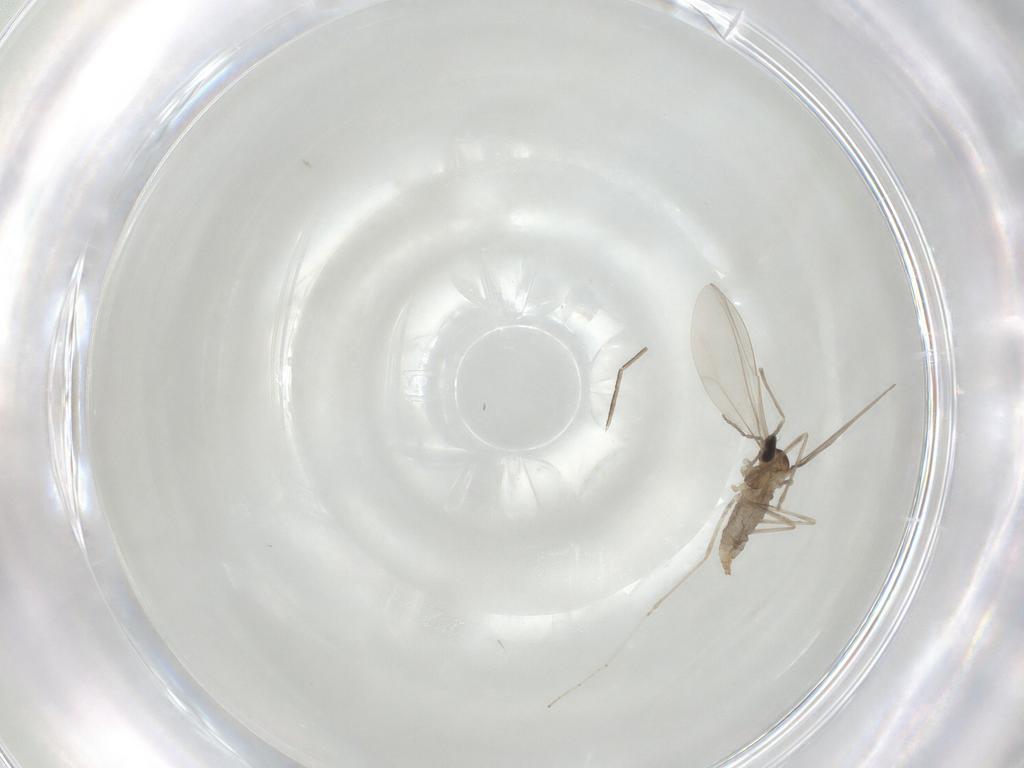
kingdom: Animalia
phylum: Arthropoda
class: Insecta
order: Diptera
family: Cecidomyiidae
